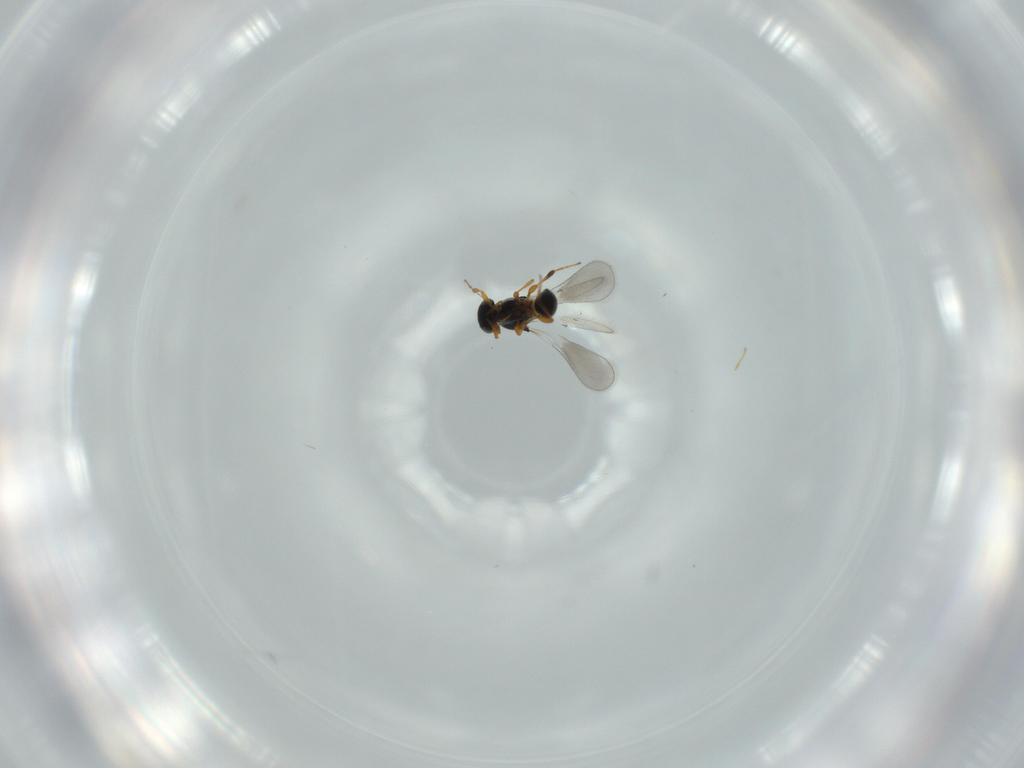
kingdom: Animalia
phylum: Arthropoda
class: Insecta
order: Hymenoptera
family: Platygastridae
